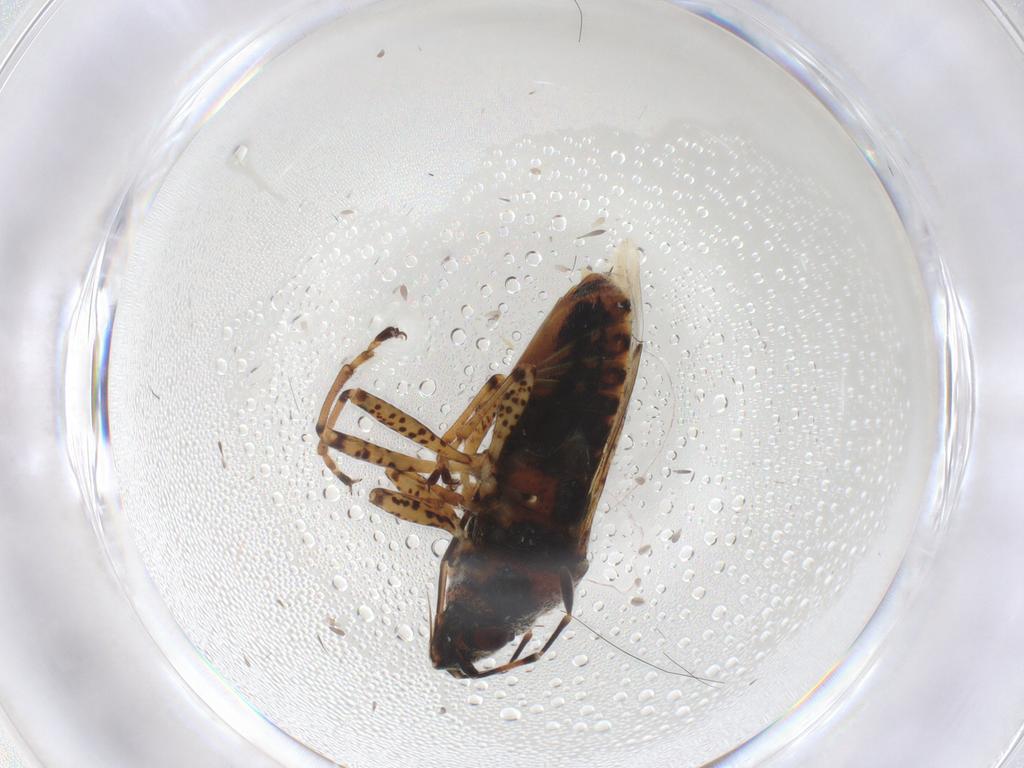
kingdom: Animalia
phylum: Arthropoda
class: Insecta
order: Hemiptera
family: Lygaeidae
